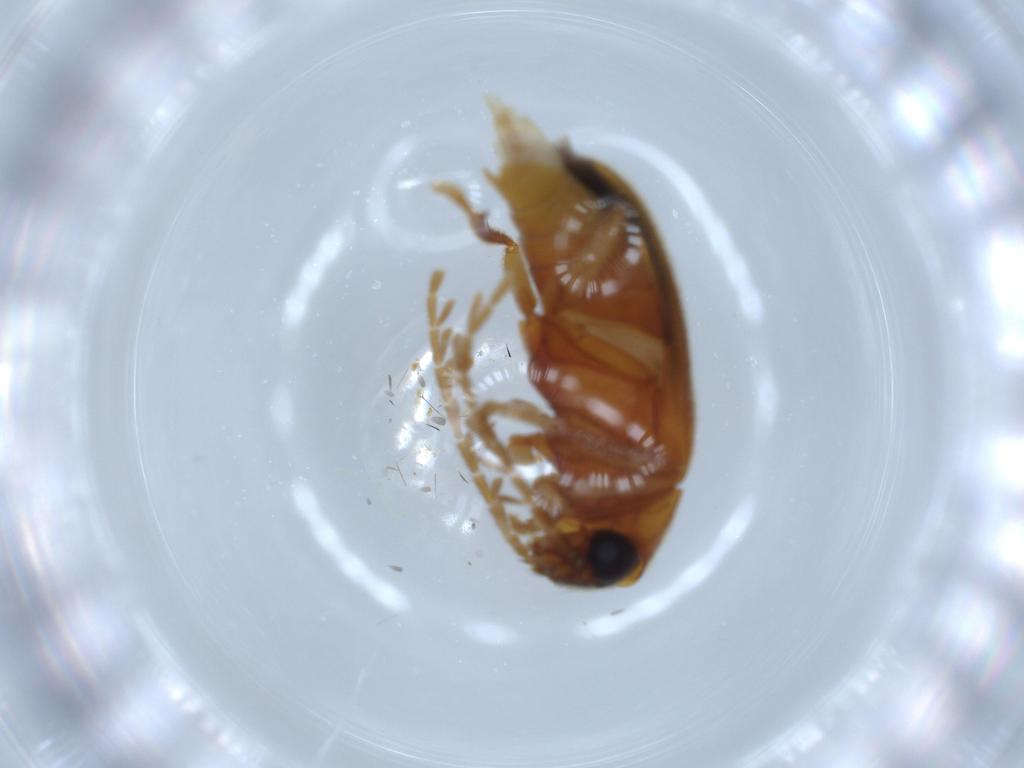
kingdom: Animalia
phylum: Arthropoda
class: Insecta
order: Coleoptera
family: Ptilodactylidae
